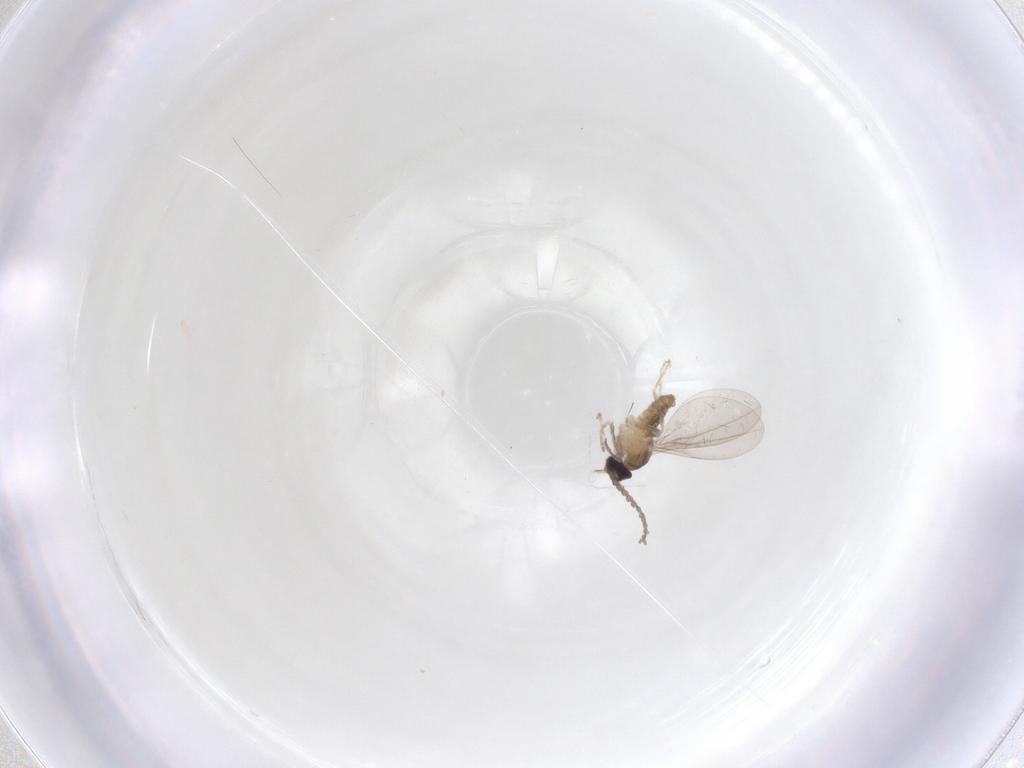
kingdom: Animalia
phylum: Arthropoda
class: Insecta
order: Diptera
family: Cecidomyiidae
